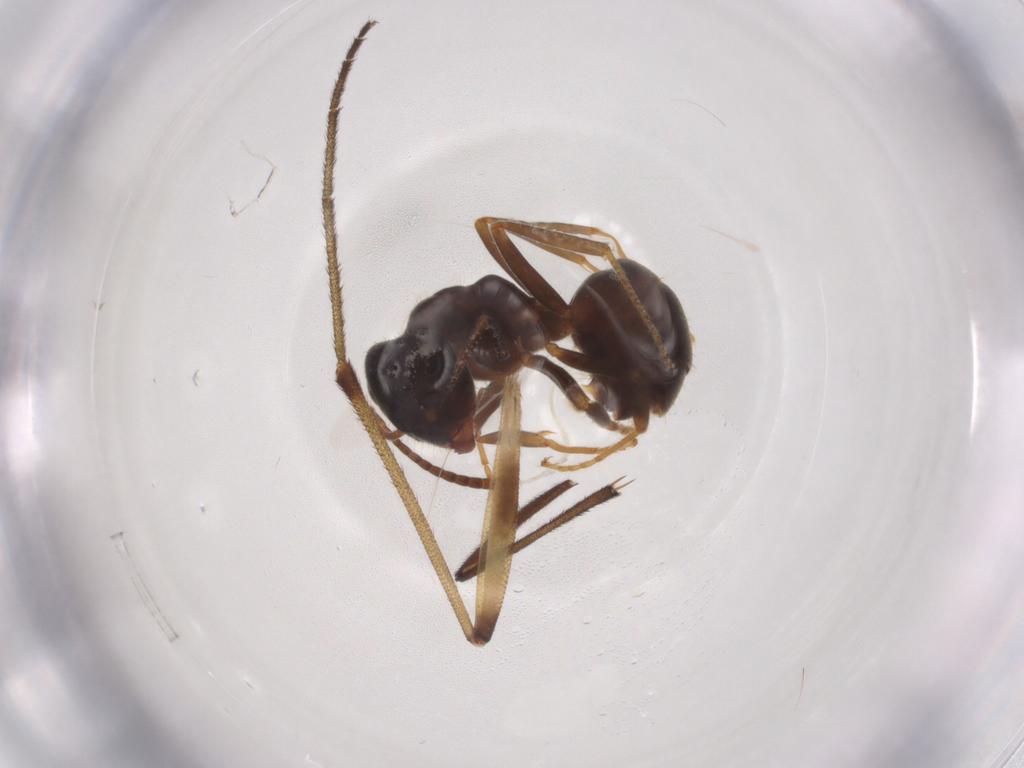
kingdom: Animalia
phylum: Arthropoda
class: Insecta
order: Hymenoptera
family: Formicidae
